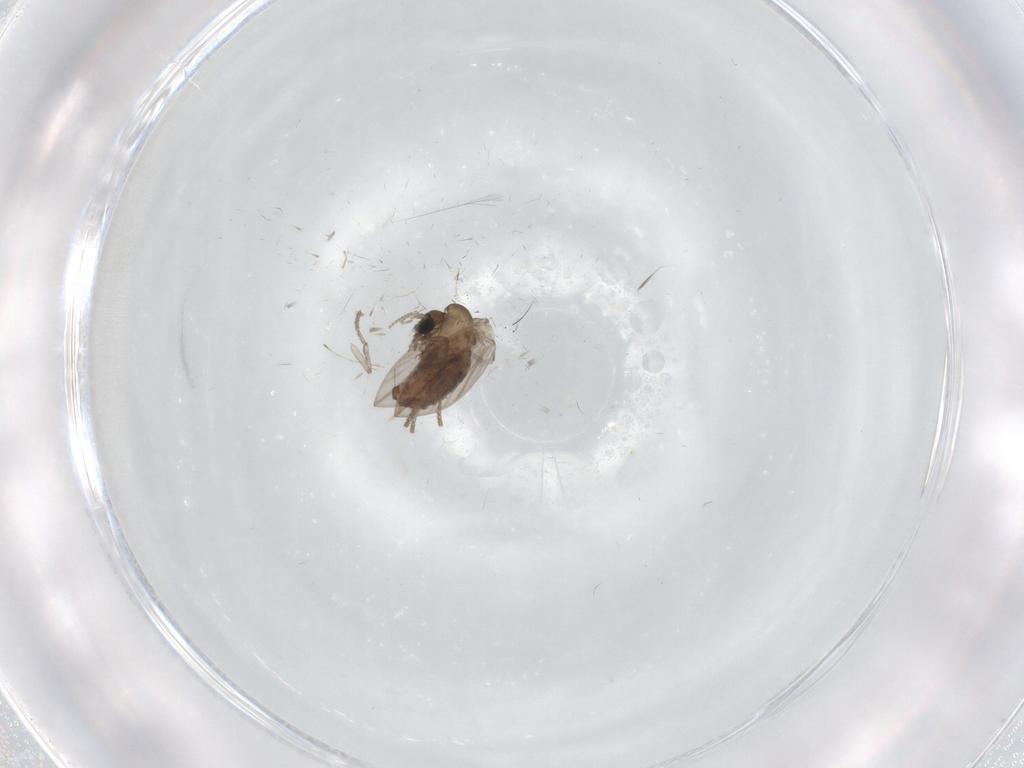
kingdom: Animalia
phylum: Arthropoda
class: Insecta
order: Diptera
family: Psychodidae
